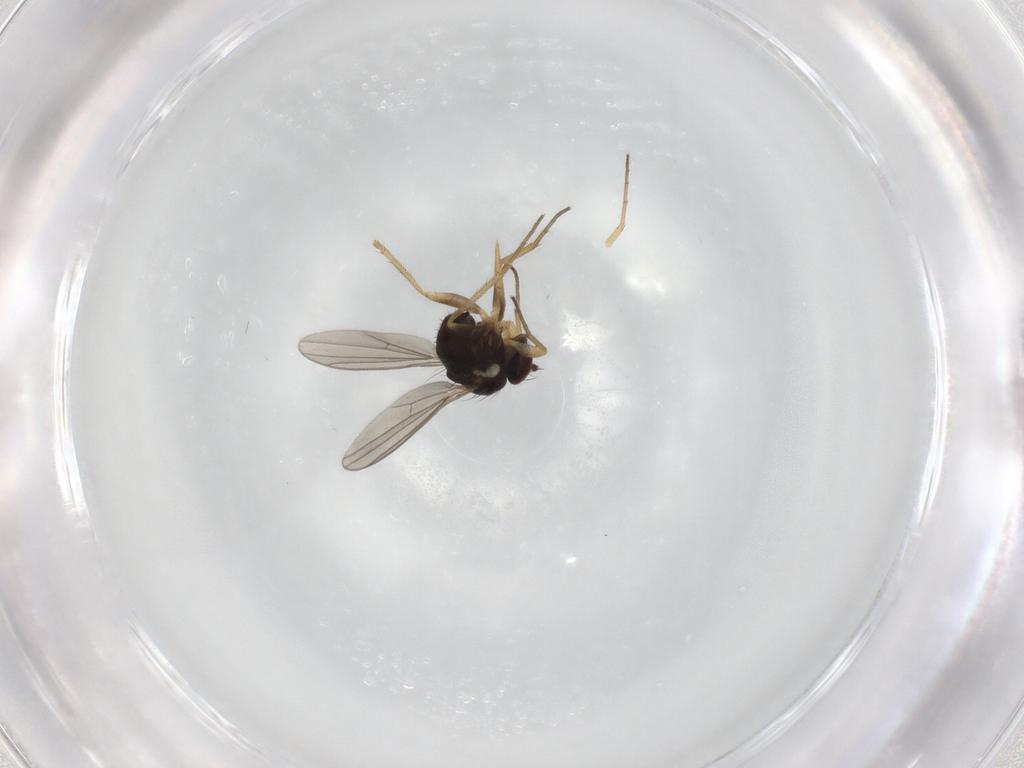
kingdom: Animalia
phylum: Arthropoda
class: Insecta
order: Diptera
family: Dolichopodidae
